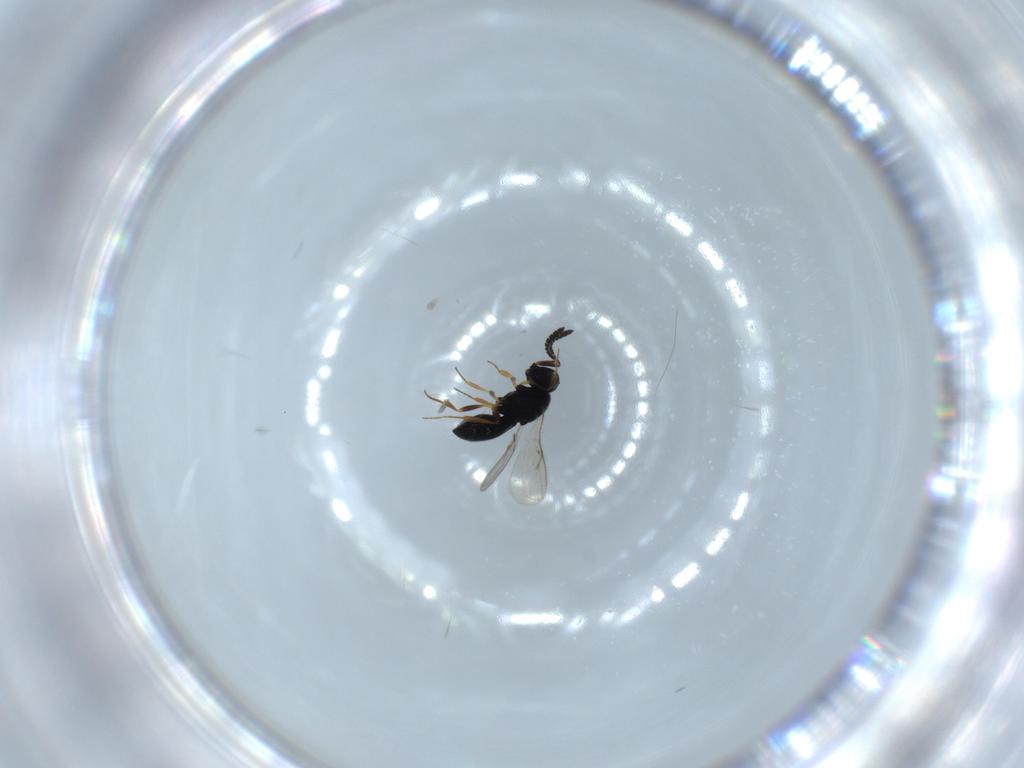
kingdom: Animalia
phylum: Arthropoda
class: Insecta
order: Hymenoptera
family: Scelionidae
